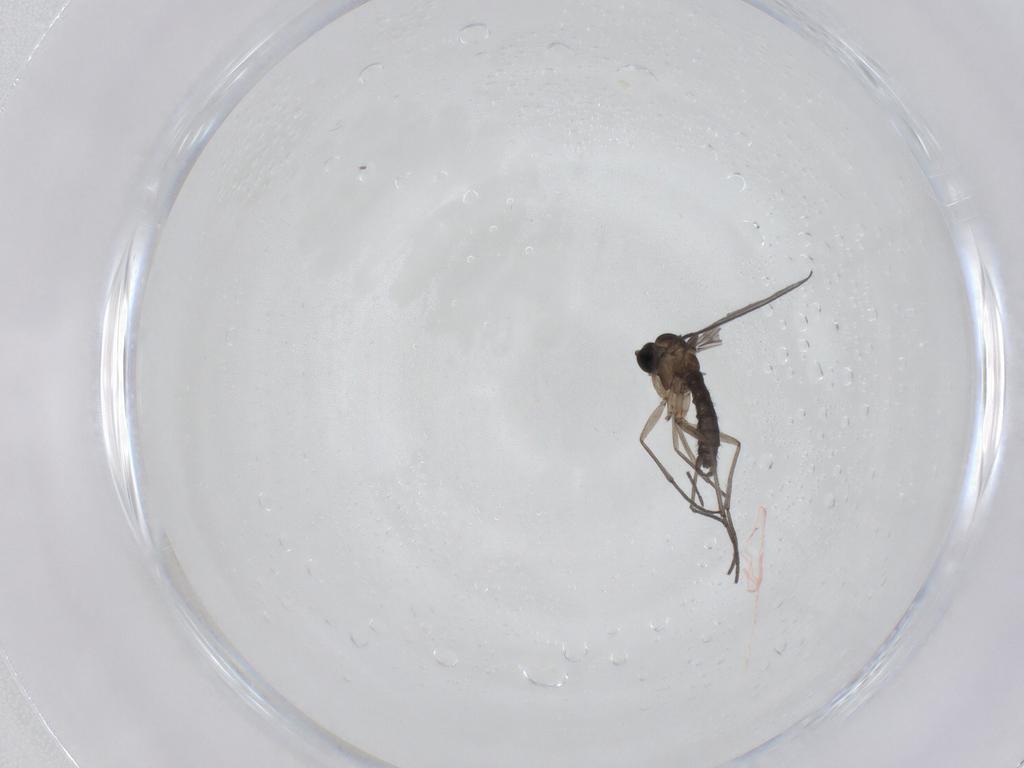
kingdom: Animalia
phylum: Arthropoda
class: Insecta
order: Diptera
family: Sciaridae
